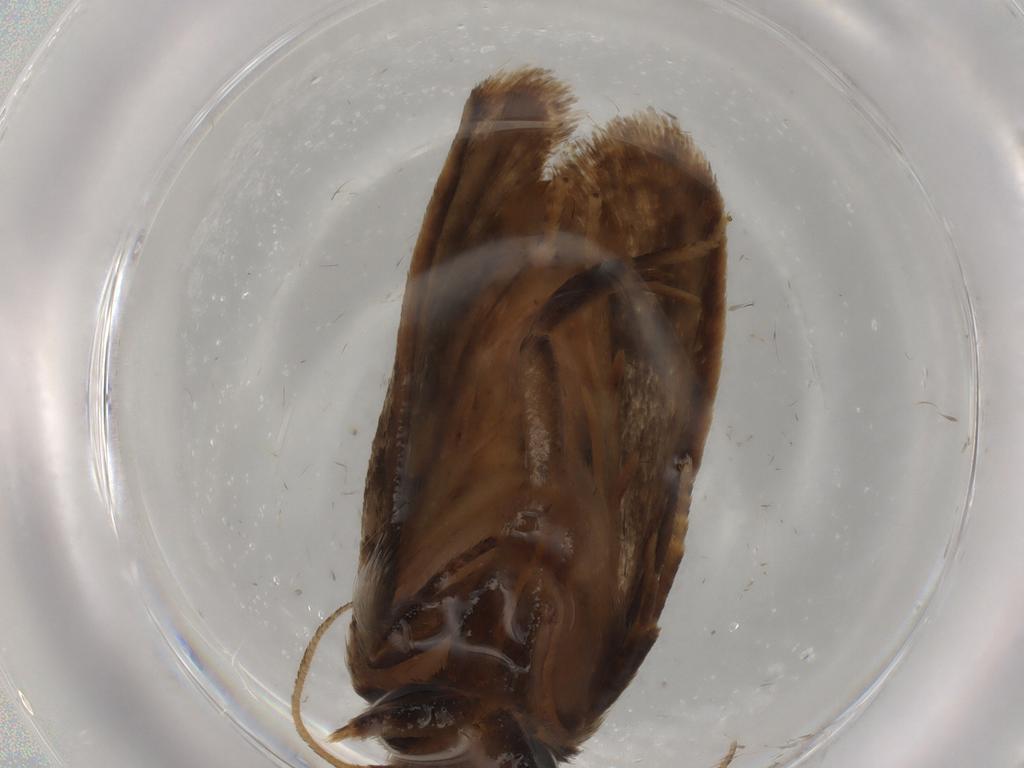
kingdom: Animalia
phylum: Arthropoda
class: Insecta
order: Lepidoptera
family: Tineidae
